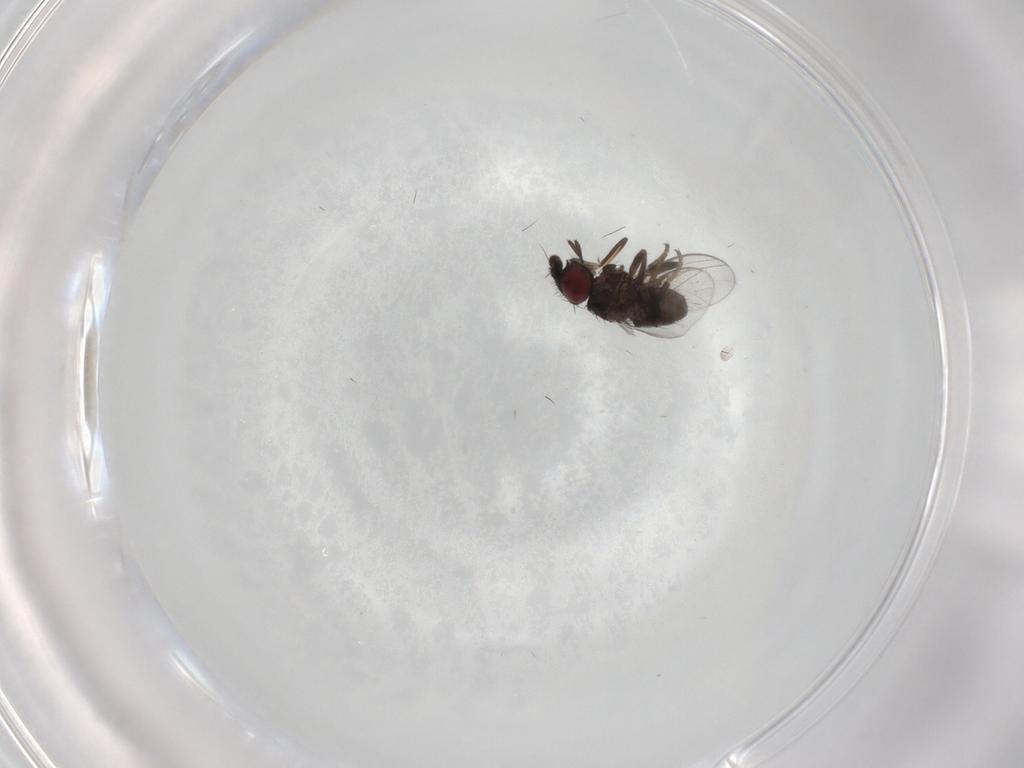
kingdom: Animalia
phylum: Arthropoda
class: Insecta
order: Diptera
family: Milichiidae
